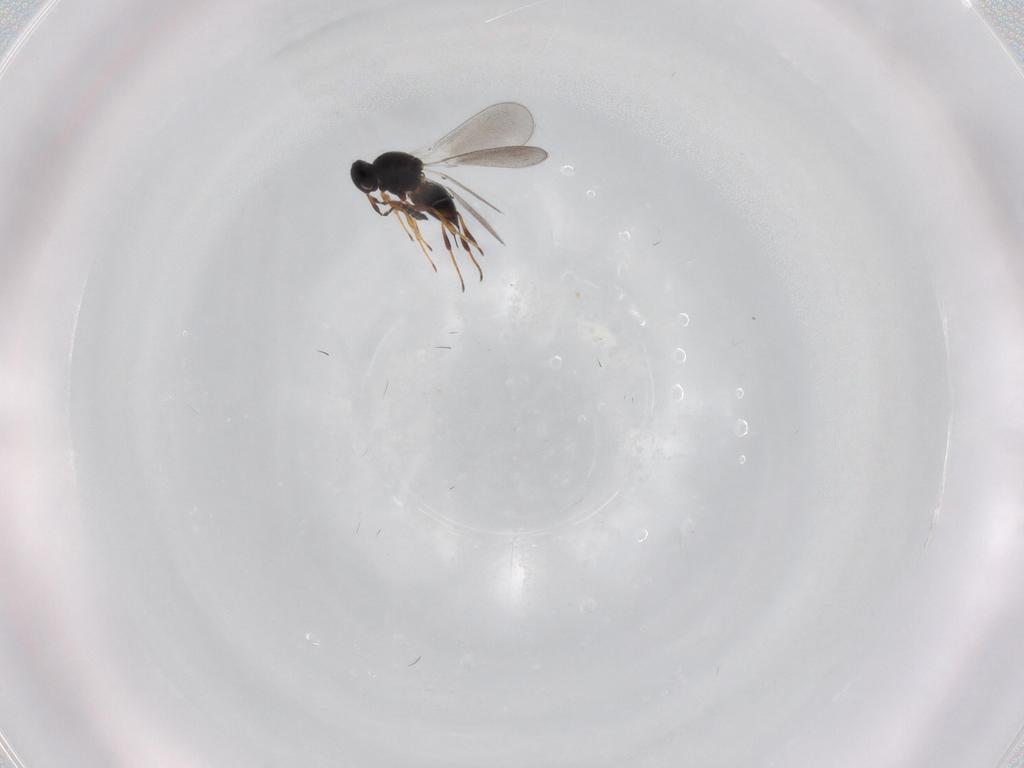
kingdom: Animalia
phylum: Arthropoda
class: Insecta
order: Hymenoptera
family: Platygastridae
